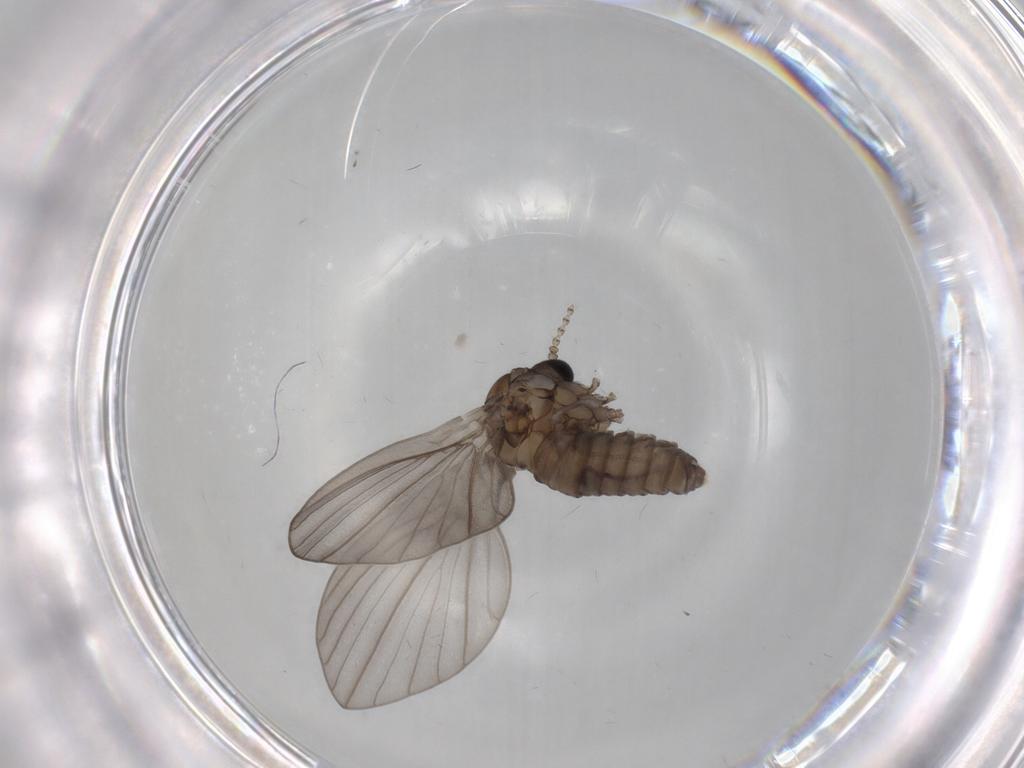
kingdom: Animalia
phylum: Arthropoda
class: Insecta
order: Diptera
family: Psychodidae
